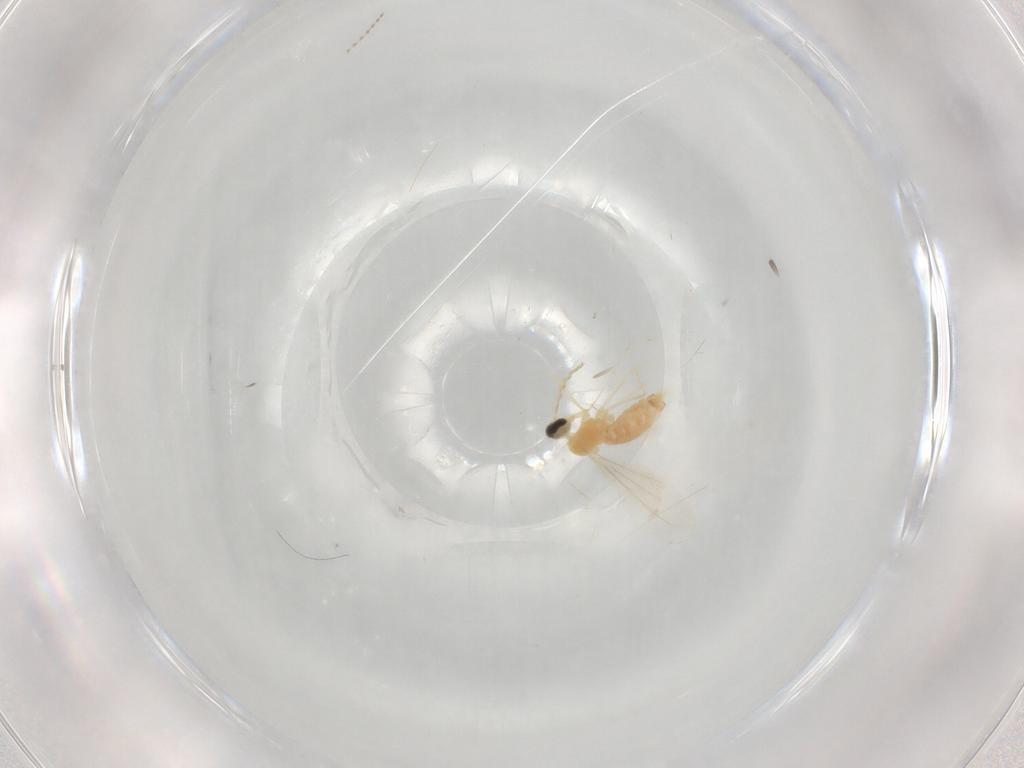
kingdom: Animalia
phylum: Arthropoda
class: Insecta
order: Diptera
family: Cecidomyiidae
